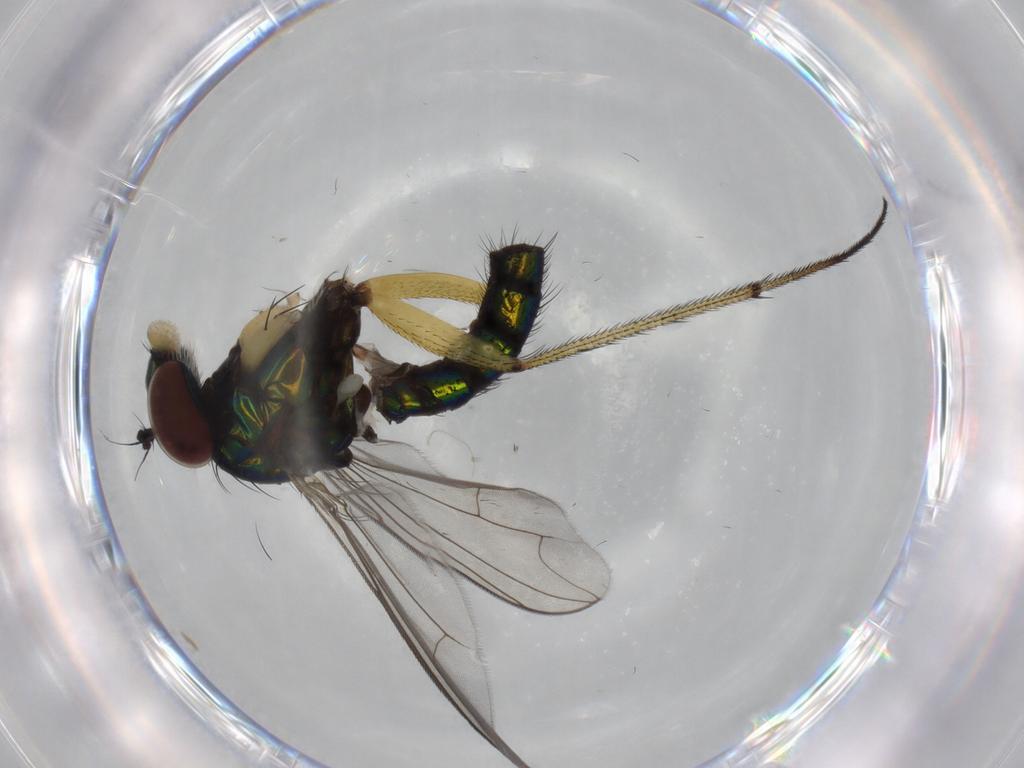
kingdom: Animalia
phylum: Arthropoda
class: Insecta
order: Diptera
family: Dolichopodidae
